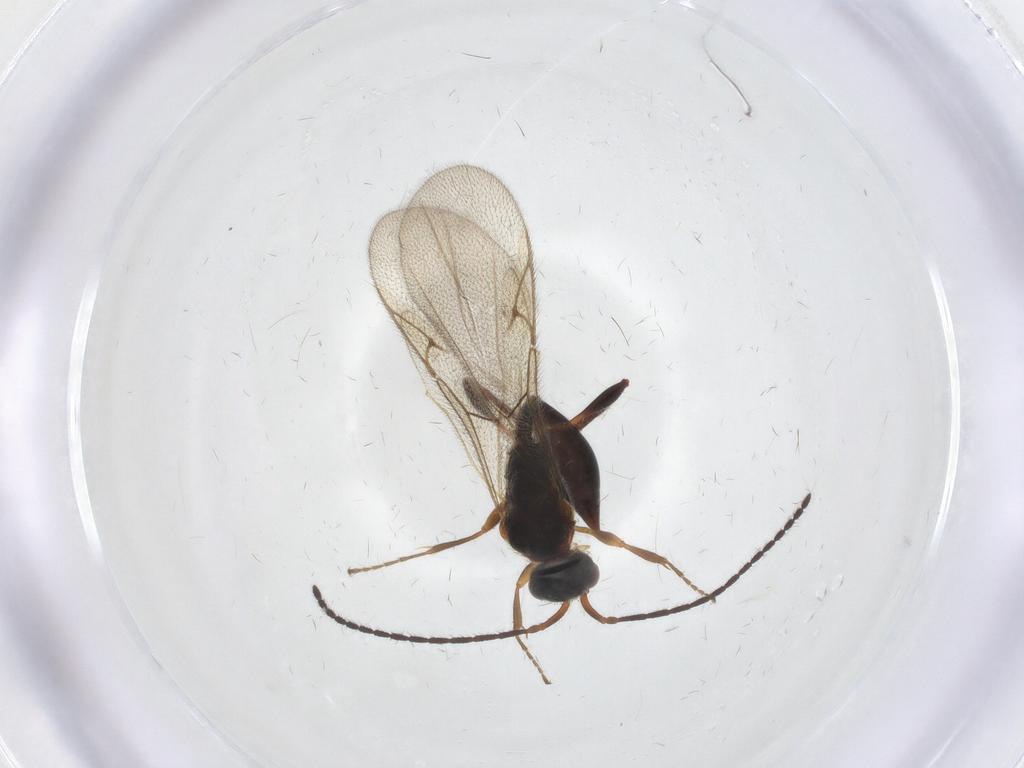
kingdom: Animalia
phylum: Arthropoda
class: Insecta
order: Hymenoptera
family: Diapriidae
